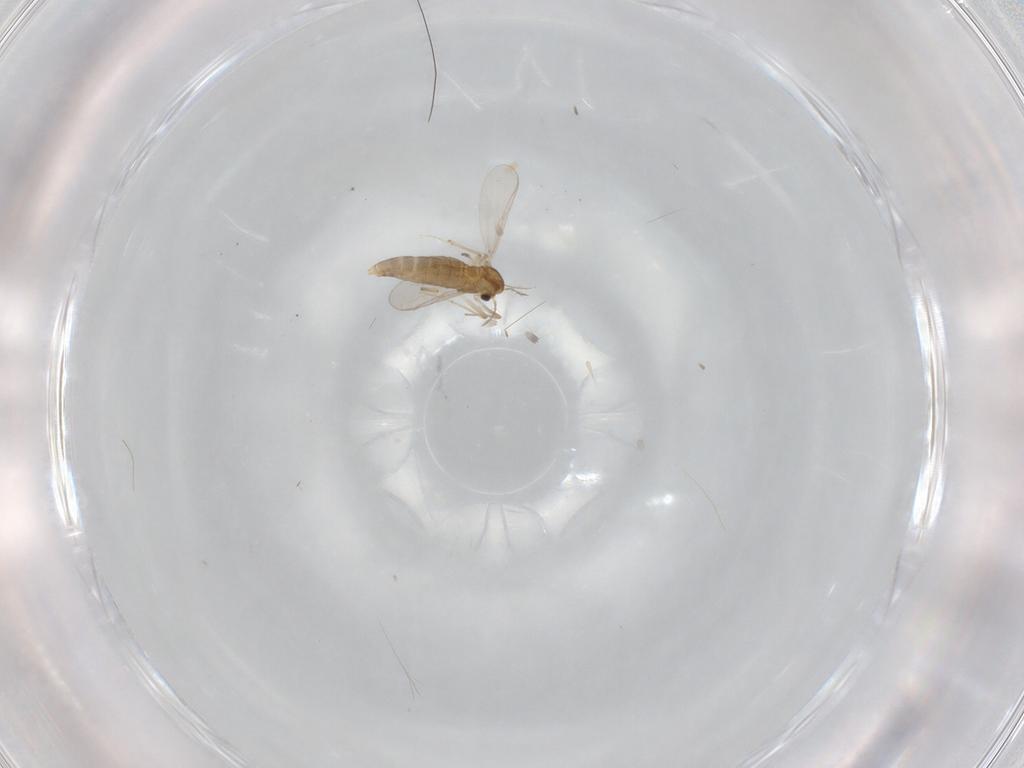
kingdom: Animalia
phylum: Arthropoda
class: Insecta
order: Diptera
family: Chironomidae
